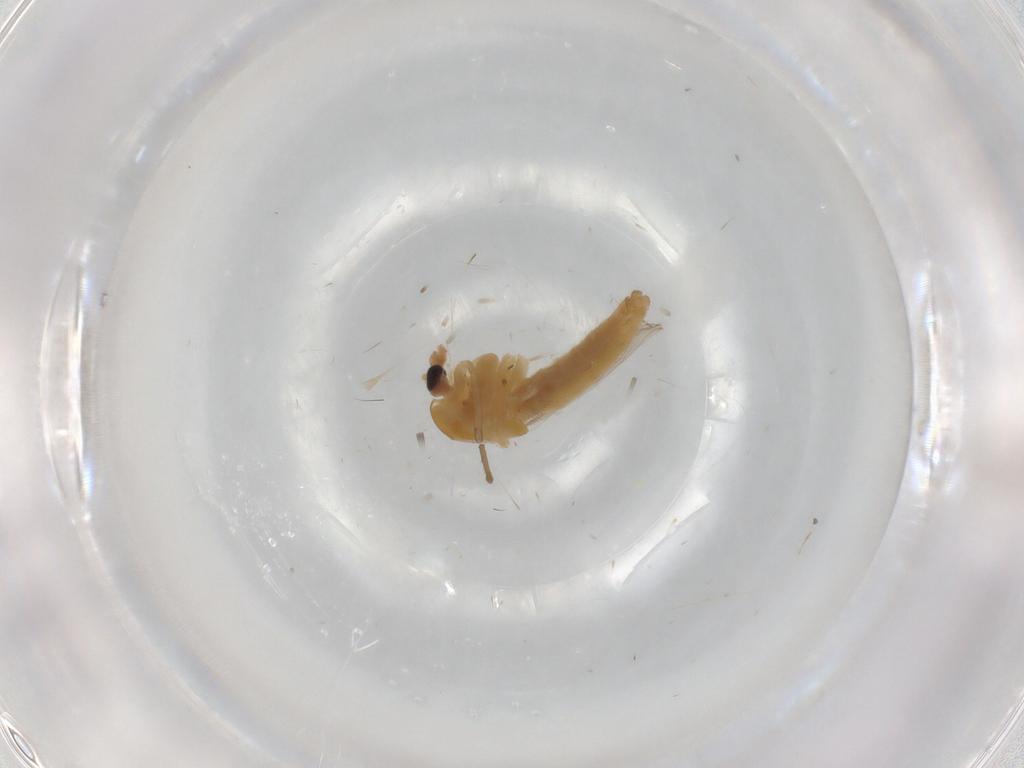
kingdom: Animalia
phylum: Arthropoda
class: Insecta
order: Diptera
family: Chironomidae
